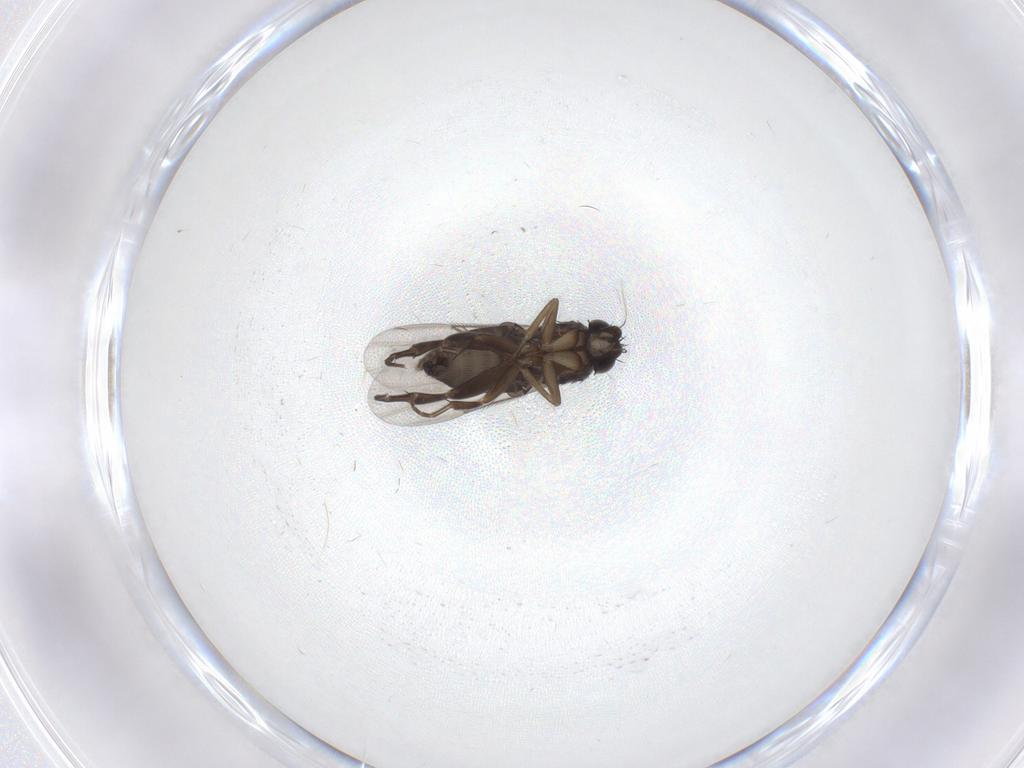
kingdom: Animalia
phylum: Arthropoda
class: Insecta
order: Diptera
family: Phoridae
